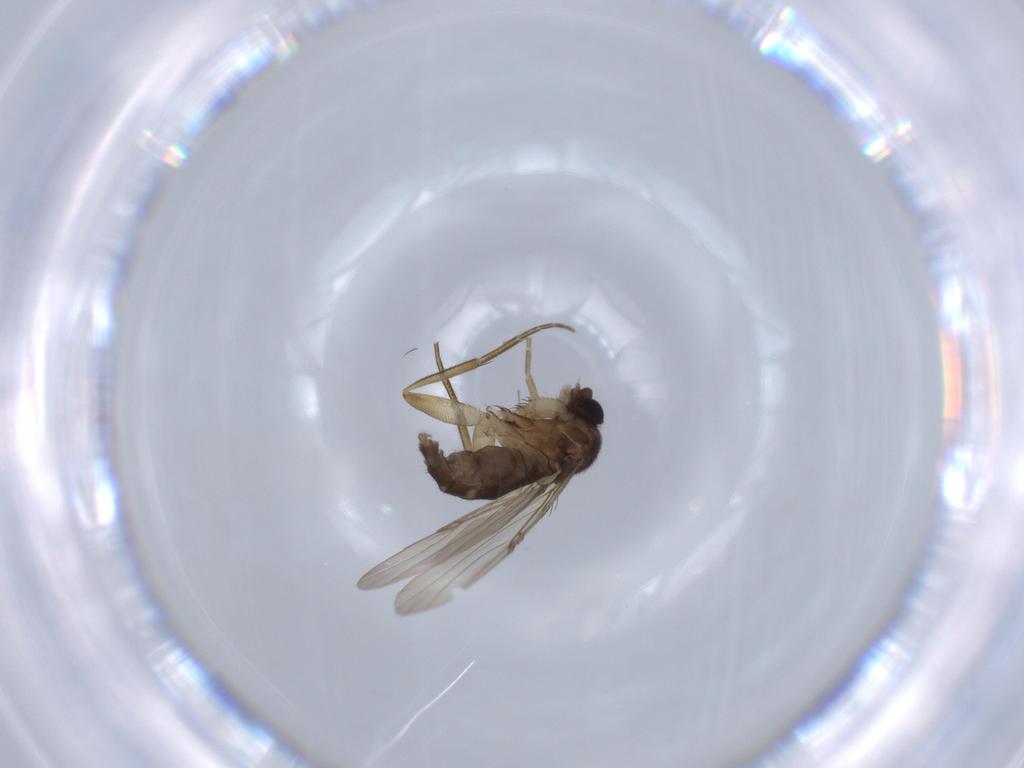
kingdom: Animalia
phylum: Arthropoda
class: Insecta
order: Diptera
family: Phoridae
